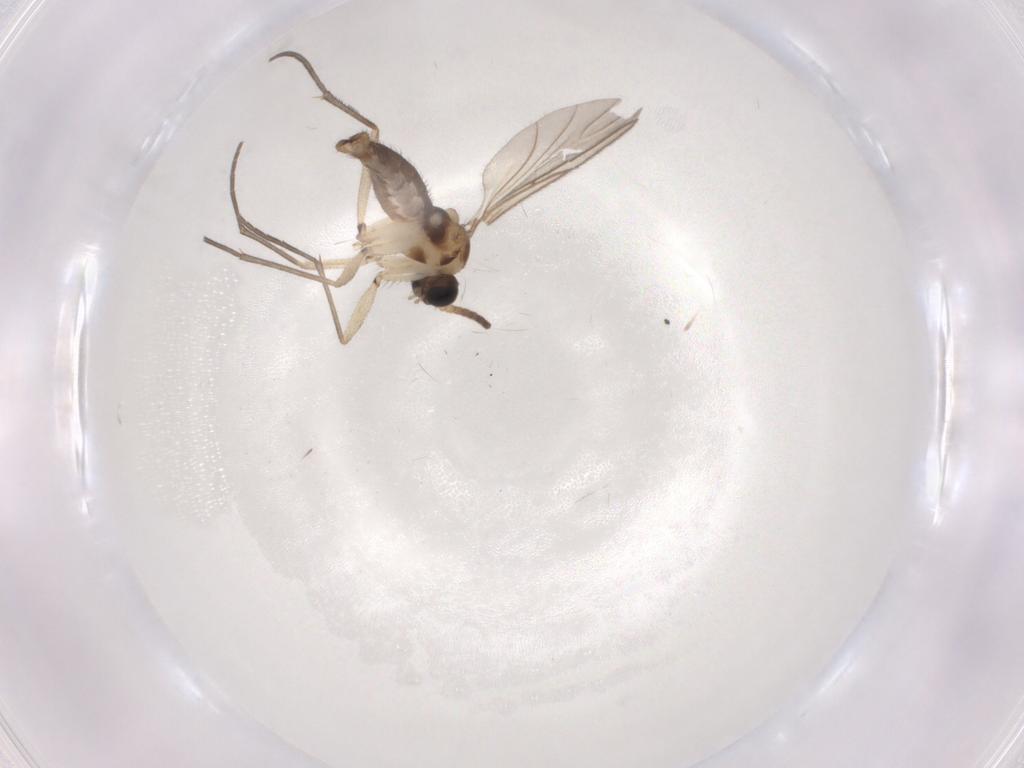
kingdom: Animalia
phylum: Arthropoda
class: Insecta
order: Diptera
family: Sciaridae
